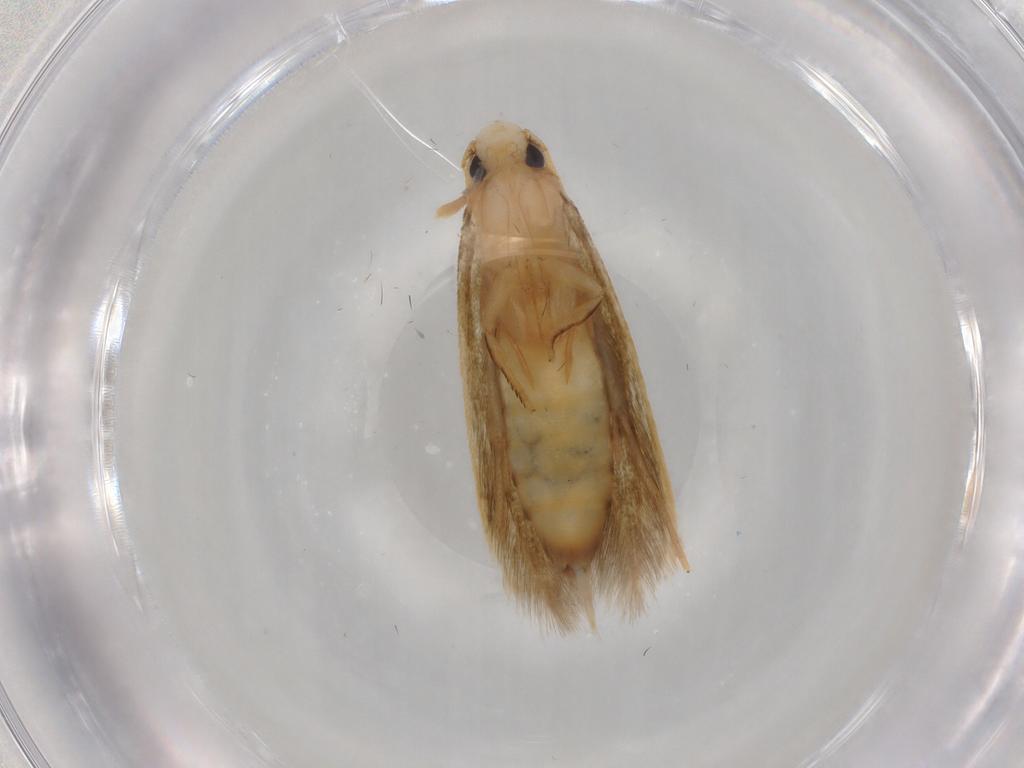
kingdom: Animalia
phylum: Arthropoda
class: Insecta
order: Lepidoptera
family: Tineidae
